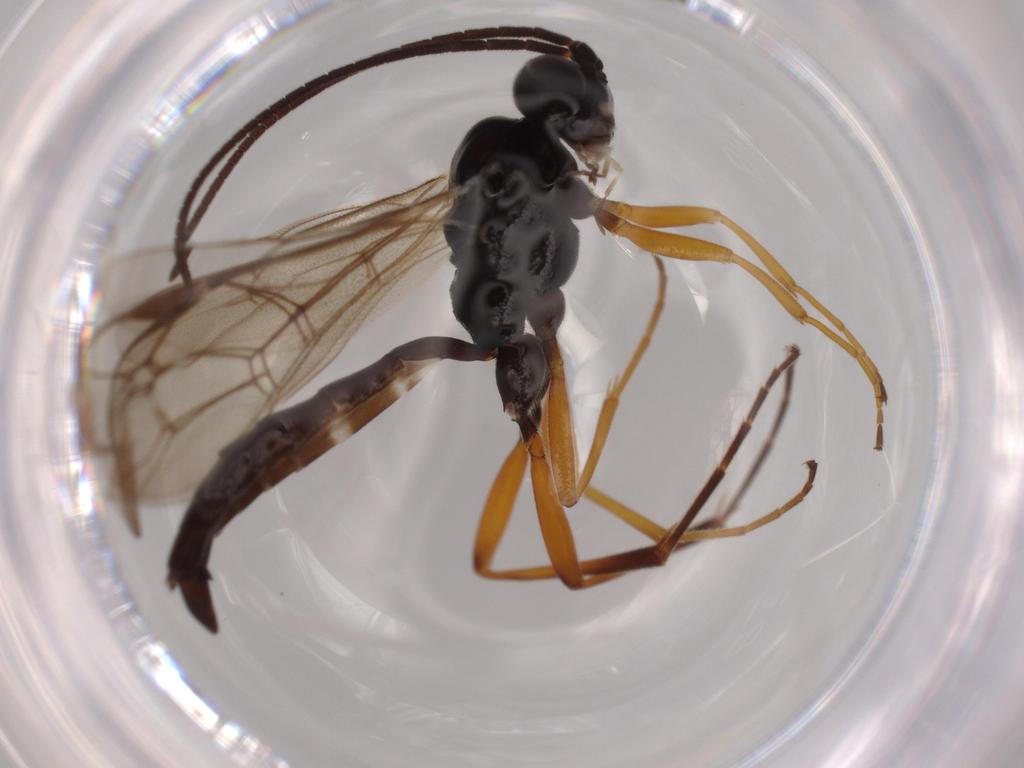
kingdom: Animalia
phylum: Arthropoda
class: Insecta
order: Hymenoptera
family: Ichneumonidae
